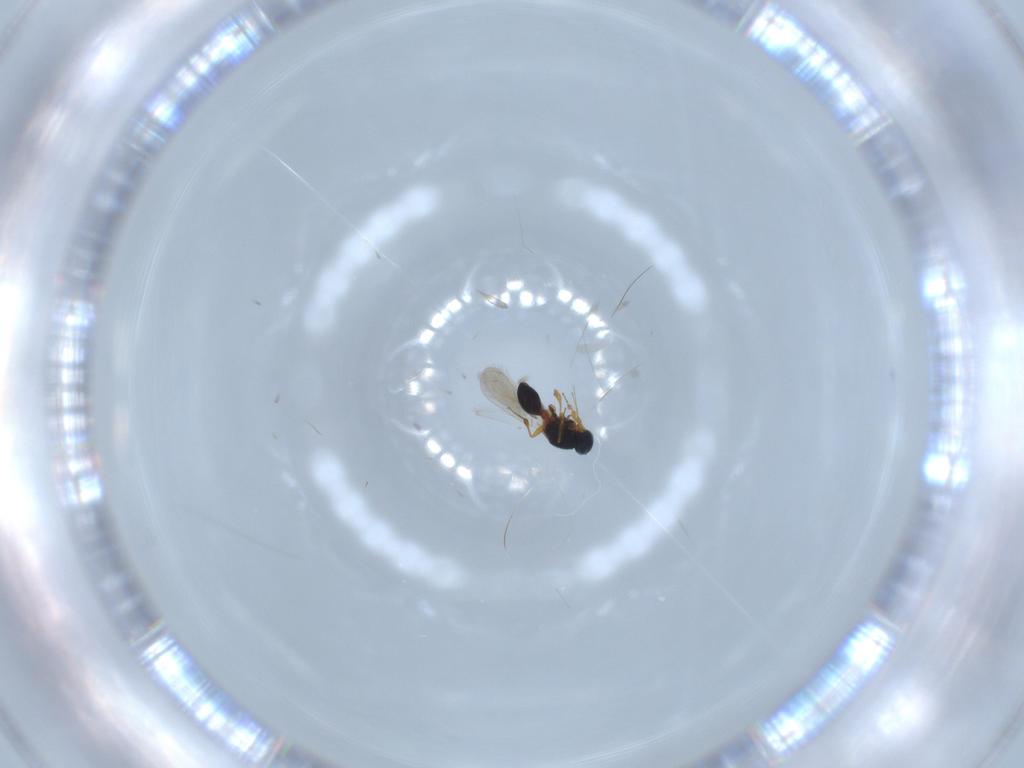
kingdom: Animalia
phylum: Arthropoda
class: Insecta
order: Hymenoptera
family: Platygastridae
